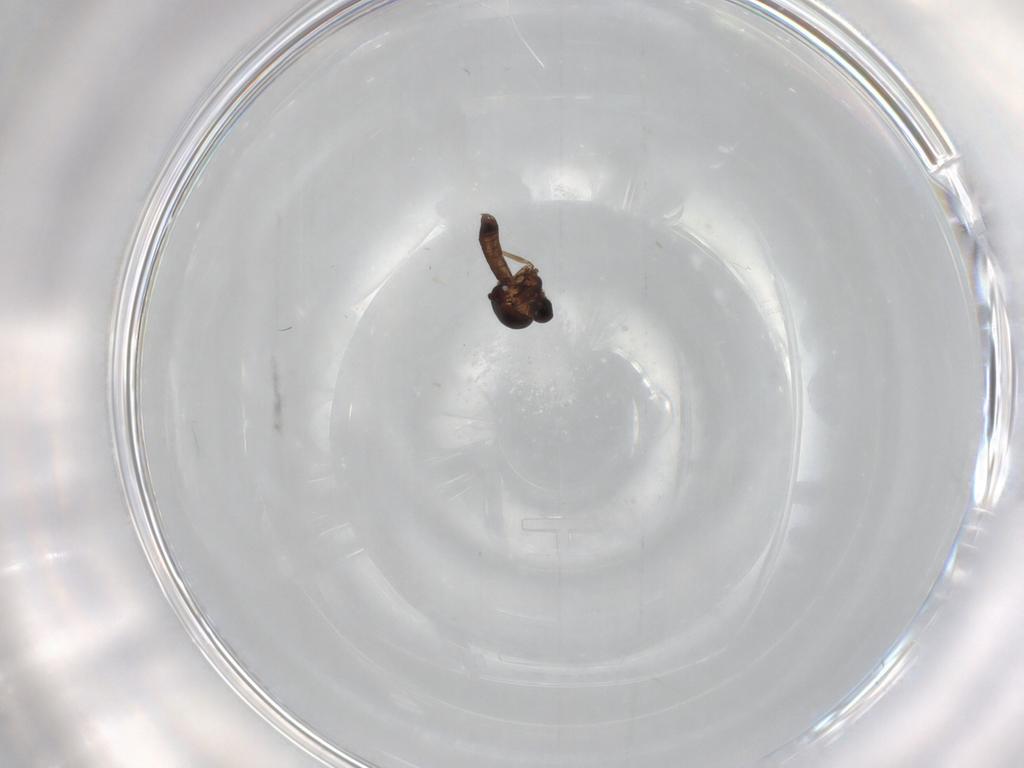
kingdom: Animalia
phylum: Arthropoda
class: Insecta
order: Diptera
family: Ceratopogonidae
